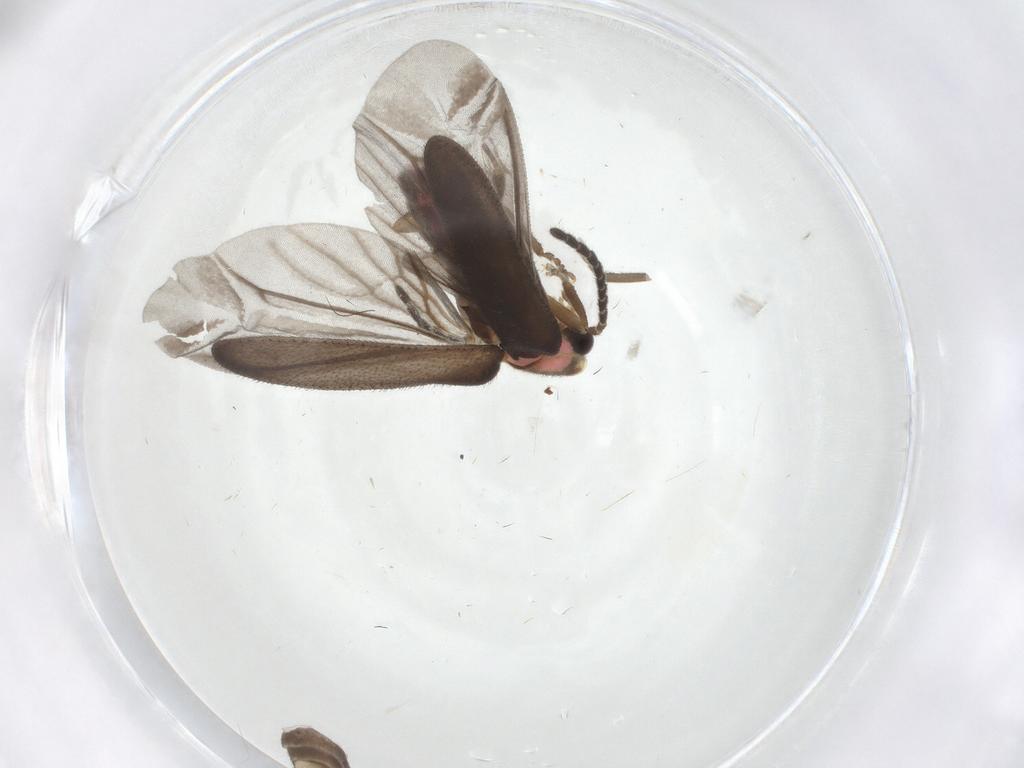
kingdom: Animalia
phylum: Arthropoda
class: Insecta
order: Coleoptera
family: Lampyridae
